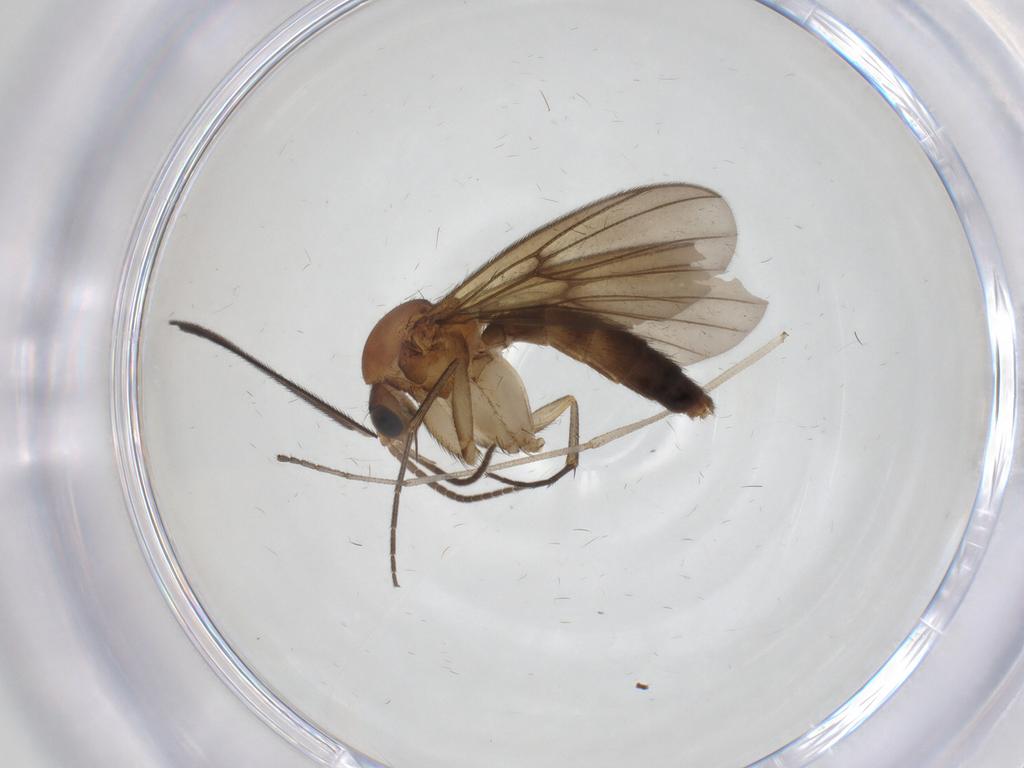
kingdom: Animalia
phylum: Arthropoda
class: Insecta
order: Diptera
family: Mycetophilidae
